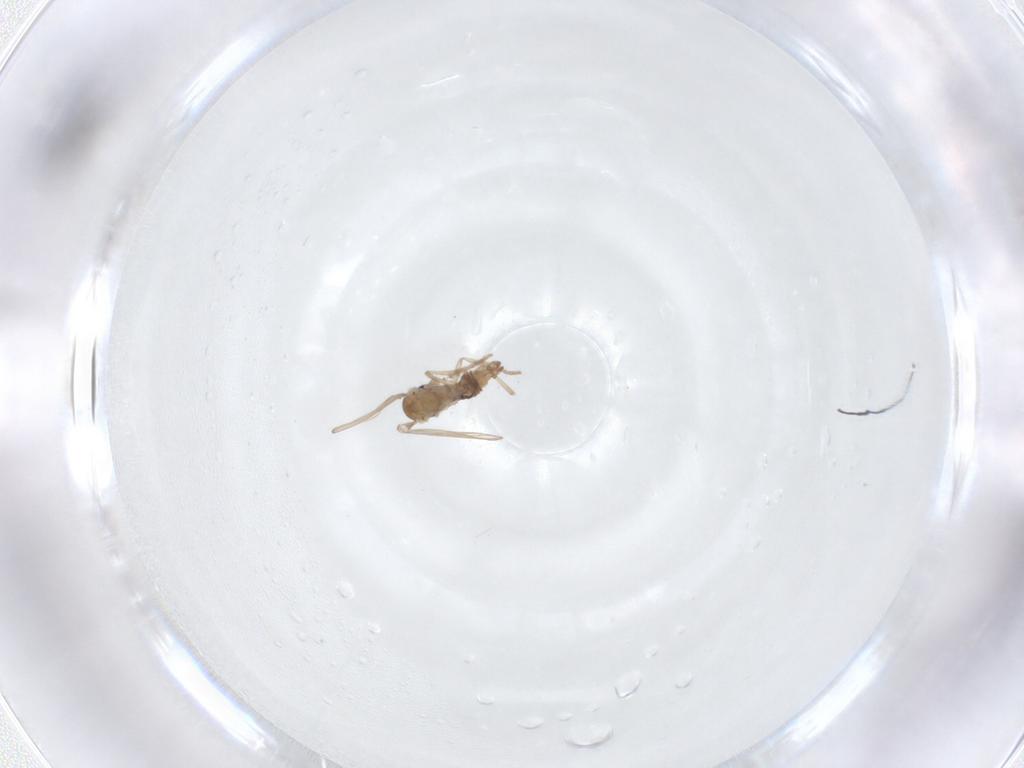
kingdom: Animalia
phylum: Arthropoda
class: Insecta
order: Diptera
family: Psychodidae
